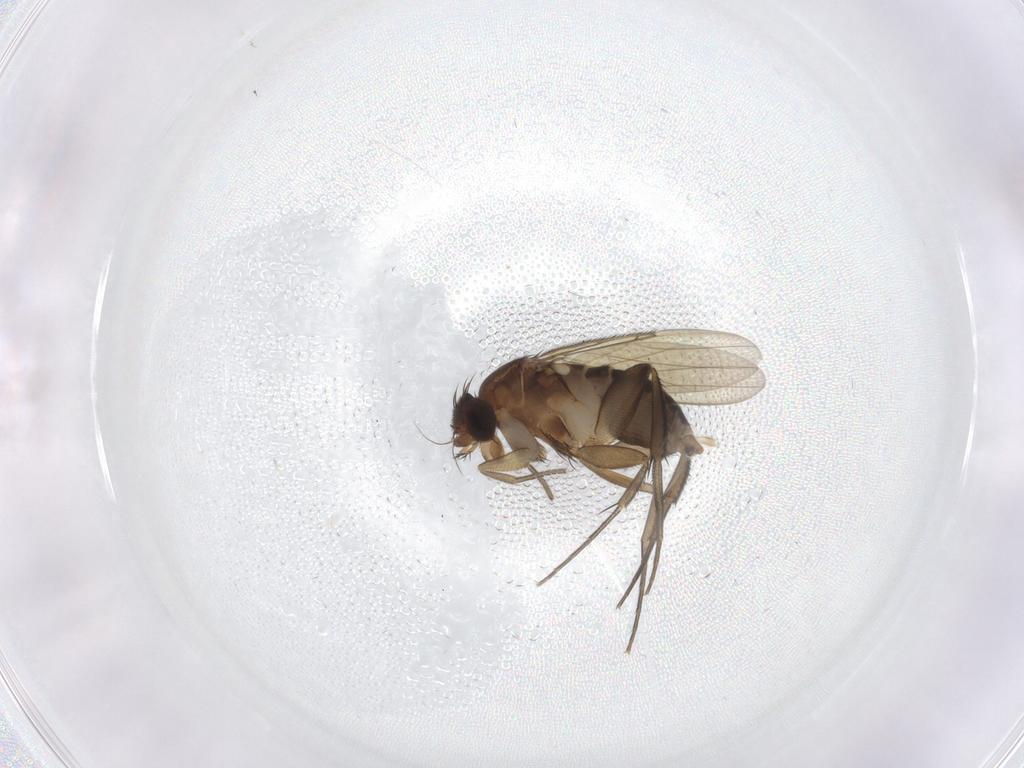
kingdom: Animalia
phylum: Arthropoda
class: Insecta
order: Diptera
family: Phoridae
